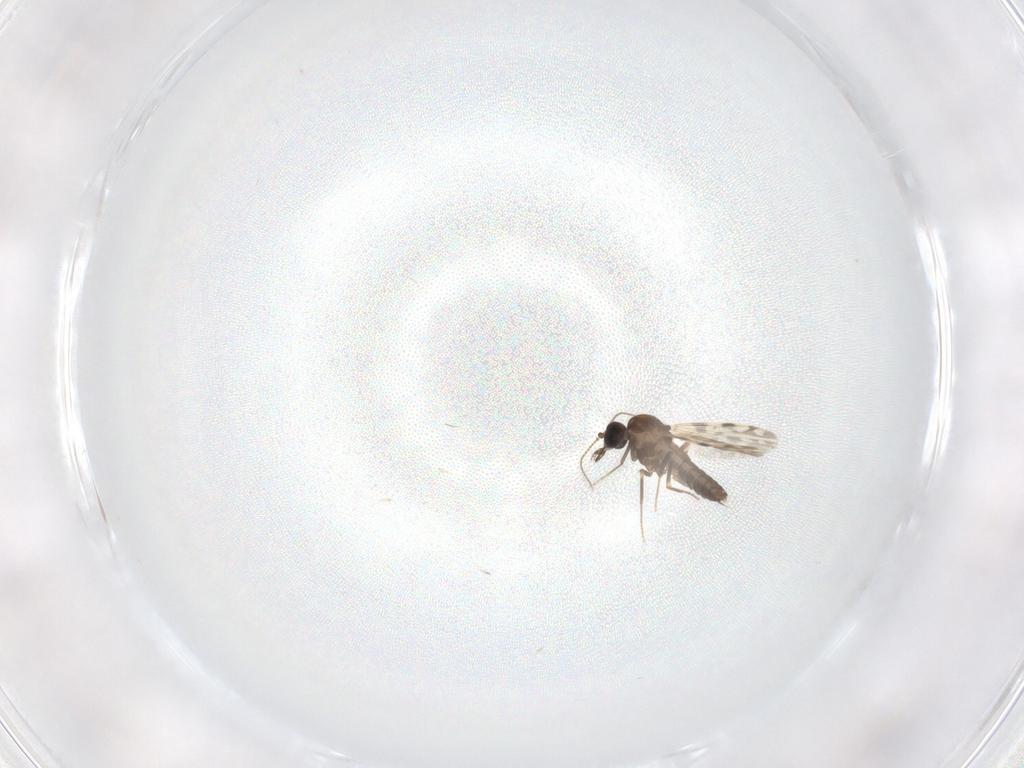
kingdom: Animalia
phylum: Arthropoda
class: Insecta
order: Diptera
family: Ceratopogonidae
